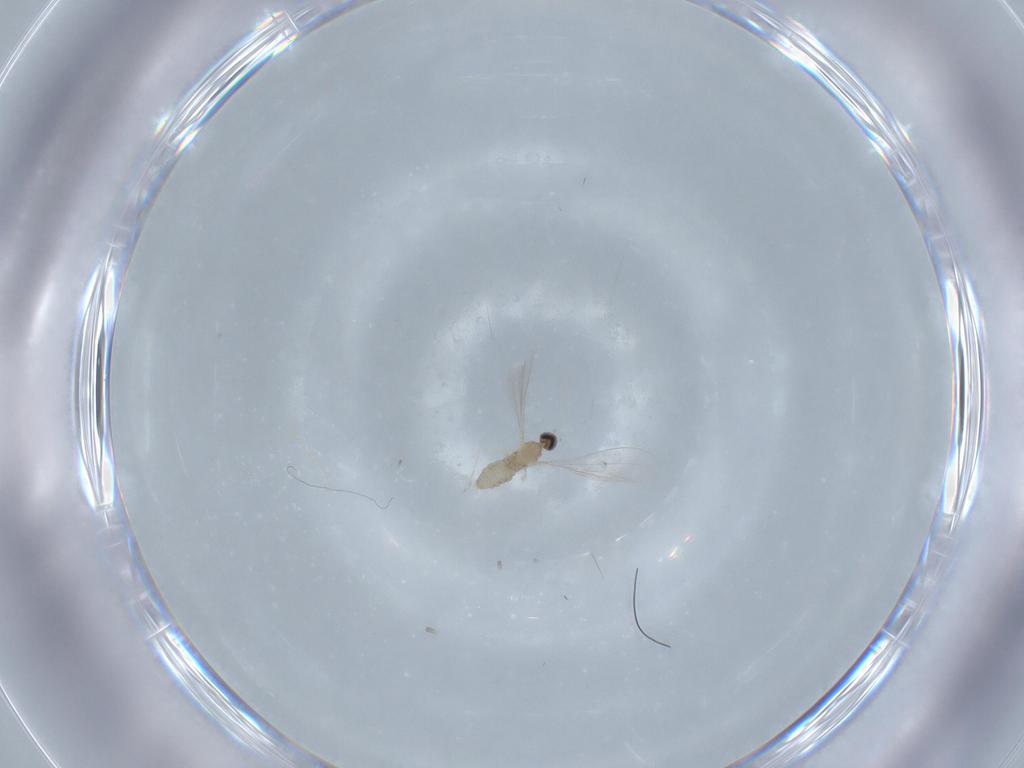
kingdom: Animalia
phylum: Arthropoda
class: Insecta
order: Diptera
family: Cecidomyiidae
